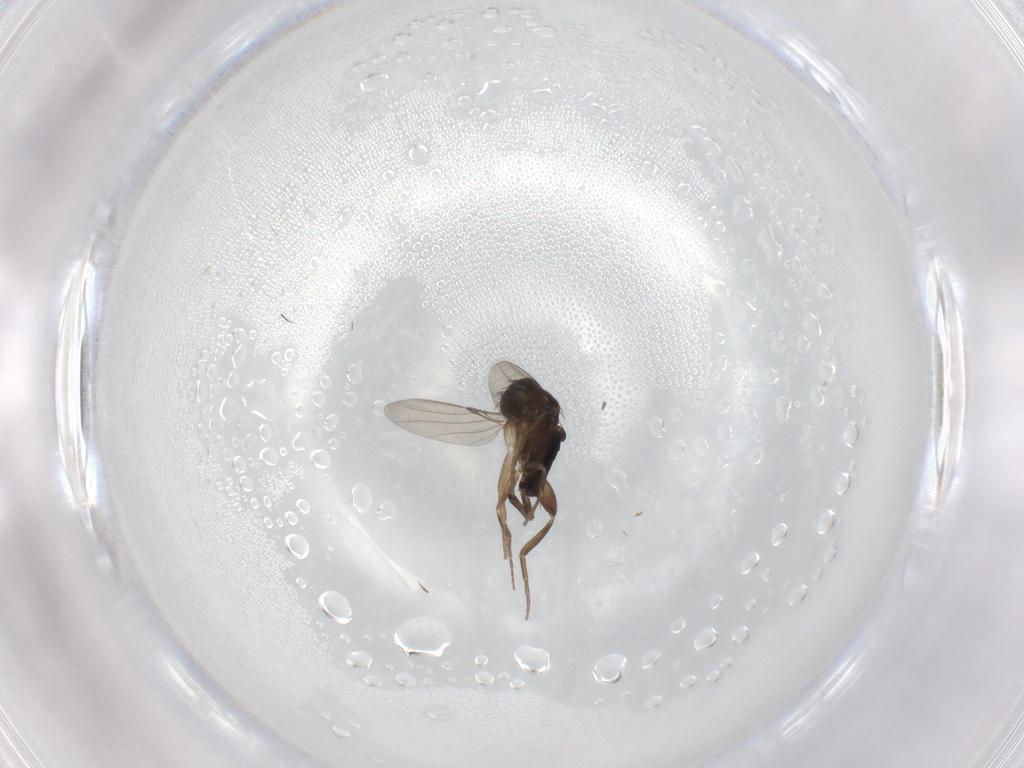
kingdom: Animalia
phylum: Arthropoda
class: Insecta
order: Diptera
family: Phoridae
